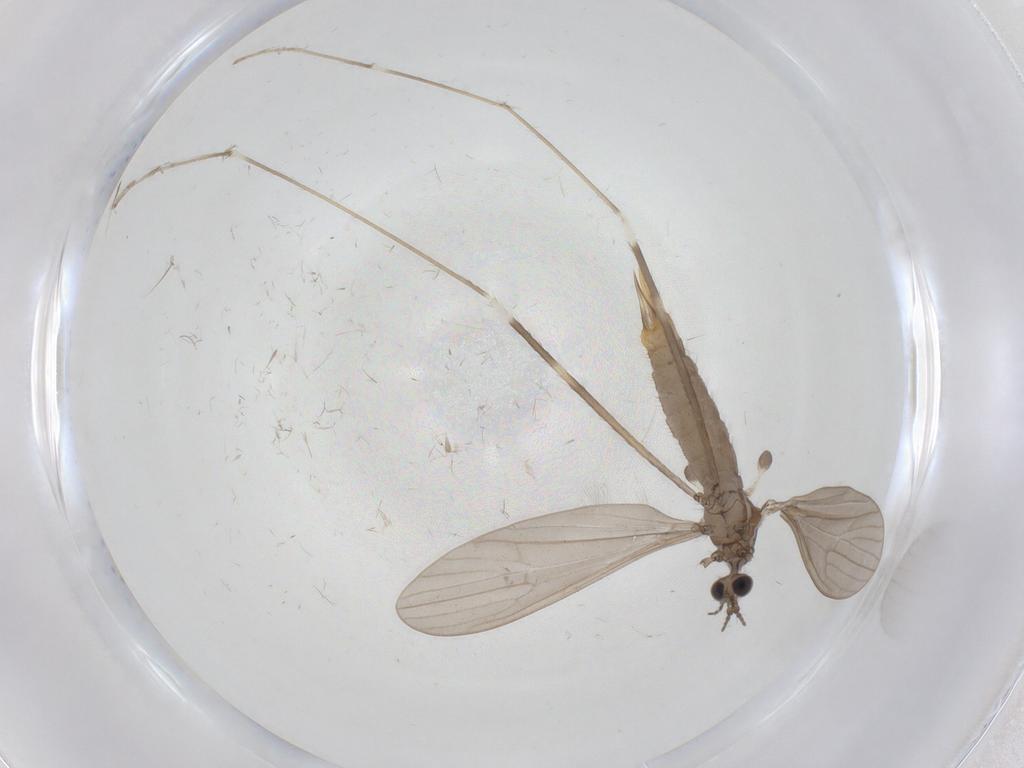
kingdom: Animalia
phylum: Arthropoda
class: Insecta
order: Diptera
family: Limoniidae
